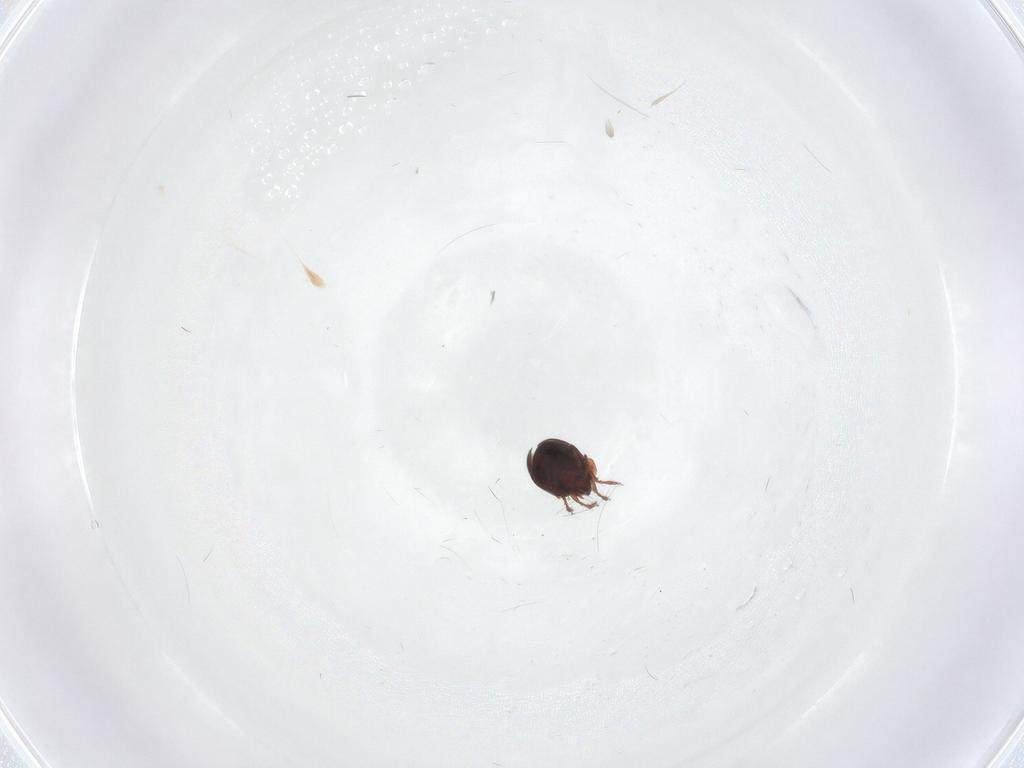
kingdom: Animalia
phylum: Arthropoda
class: Arachnida
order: Sarcoptiformes
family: Ceratozetidae
